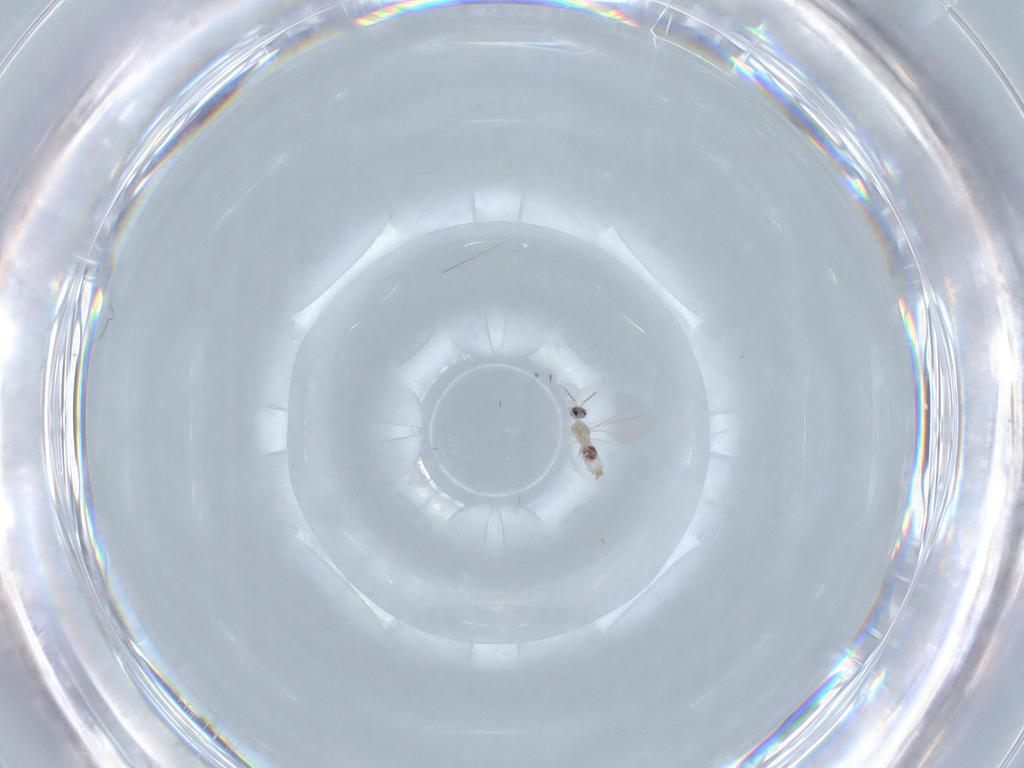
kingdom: Animalia
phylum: Arthropoda
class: Insecta
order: Diptera
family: Cecidomyiidae
